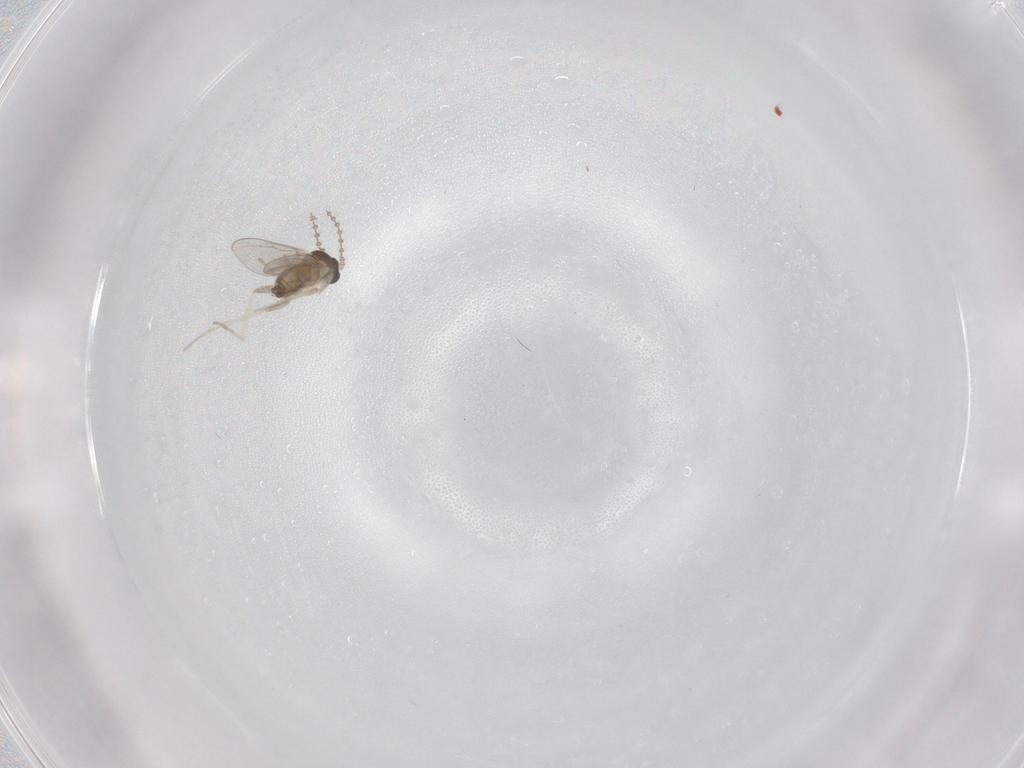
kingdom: Animalia
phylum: Arthropoda
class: Insecta
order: Diptera
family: Cecidomyiidae
